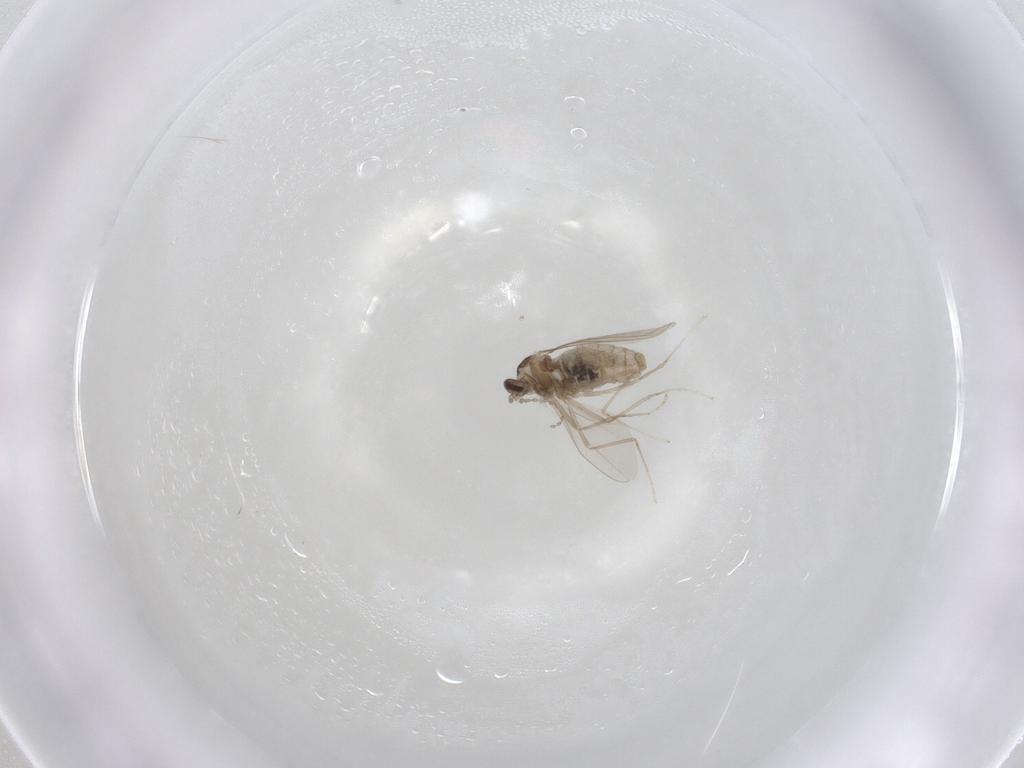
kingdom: Animalia
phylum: Arthropoda
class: Insecta
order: Diptera
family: Cecidomyiidae
